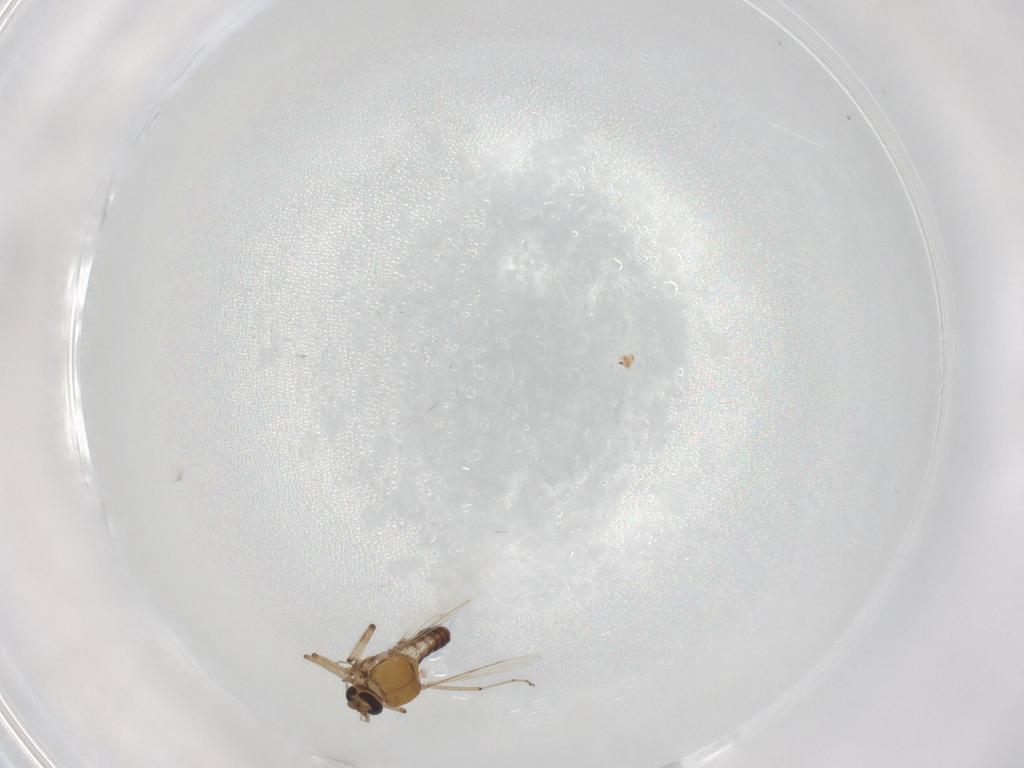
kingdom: Animalia
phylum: Arthropoda
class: Insecta
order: Diptera
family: Ceratopogonidae
